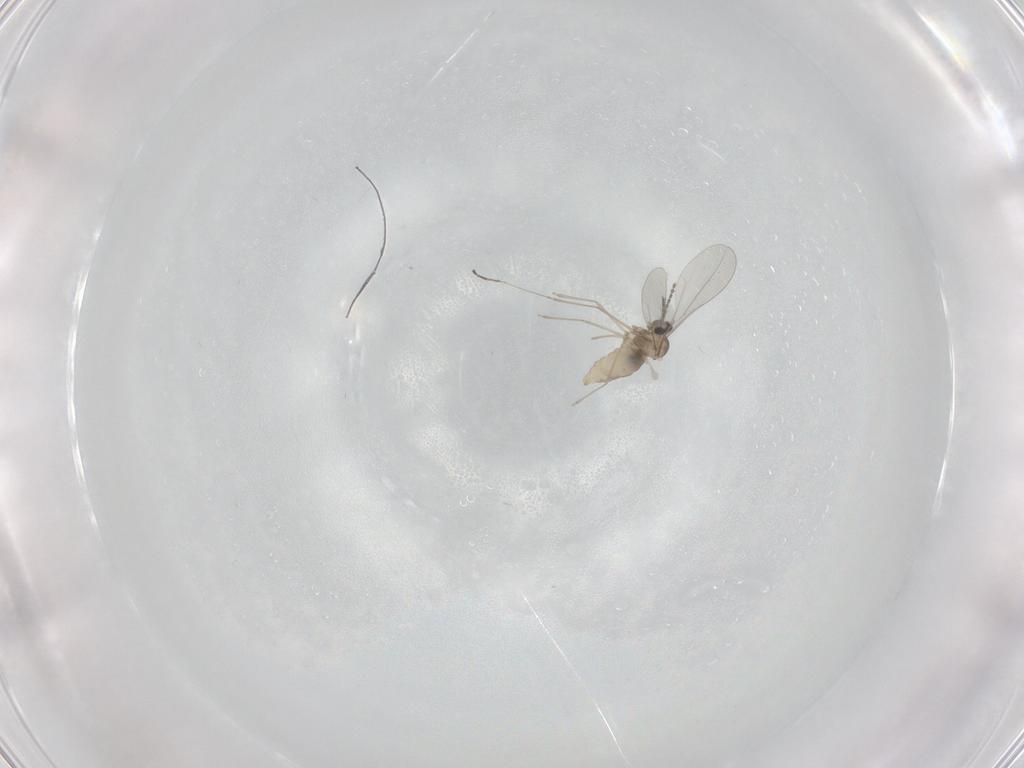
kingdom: Animalia
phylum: Arthropoda
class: Insecta
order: Diptera
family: Cecidomyiidae
